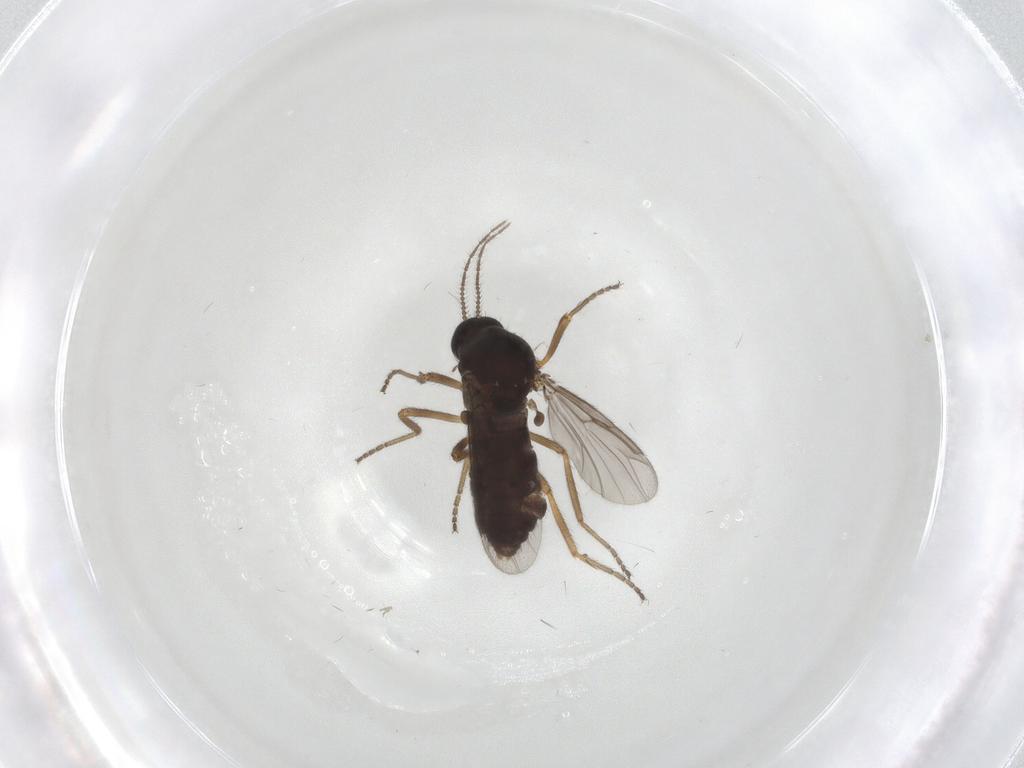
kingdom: Animalia
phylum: Arthropoda
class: Insecta
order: Diptera
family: Ceratopogonidae
